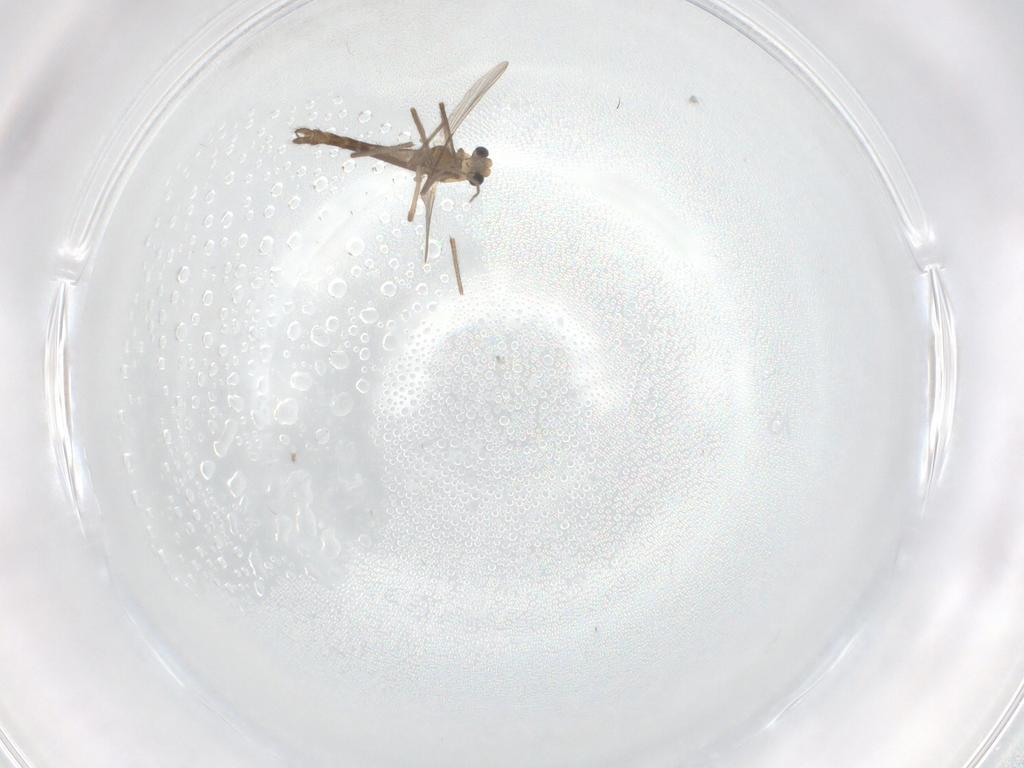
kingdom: Animalia
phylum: Arthropoda
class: Insecta
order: Diptera
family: Chironomidae
